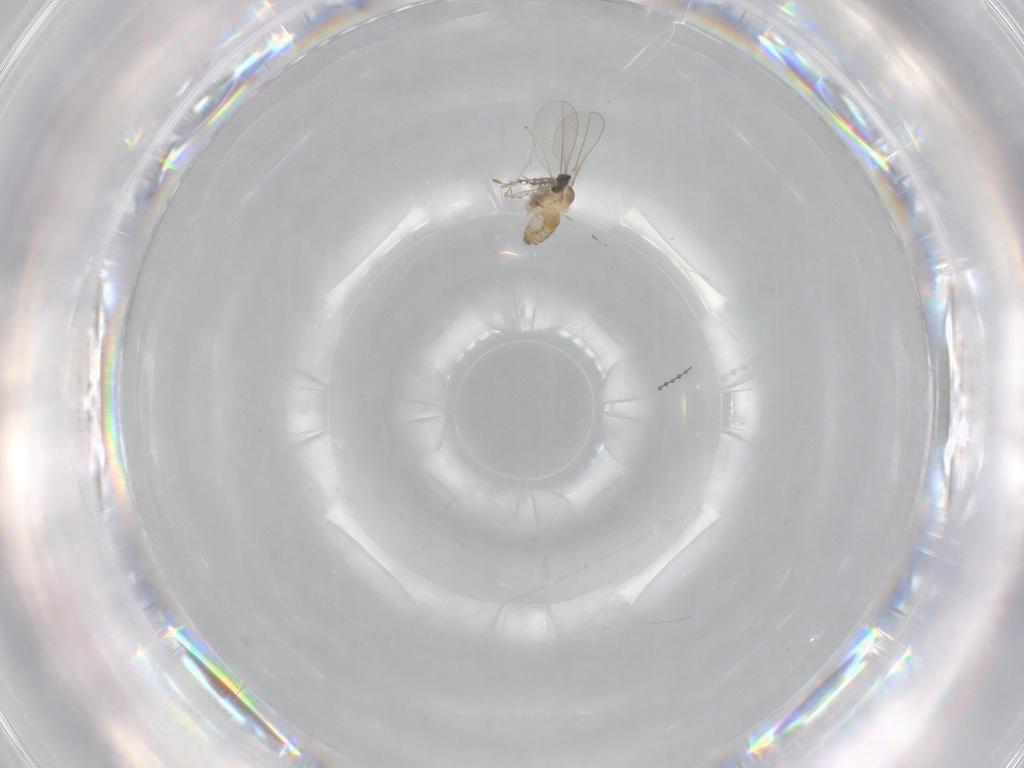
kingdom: Animalia
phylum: Arthropoda
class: Insecta
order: Diptera
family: Cecidomyiidae
